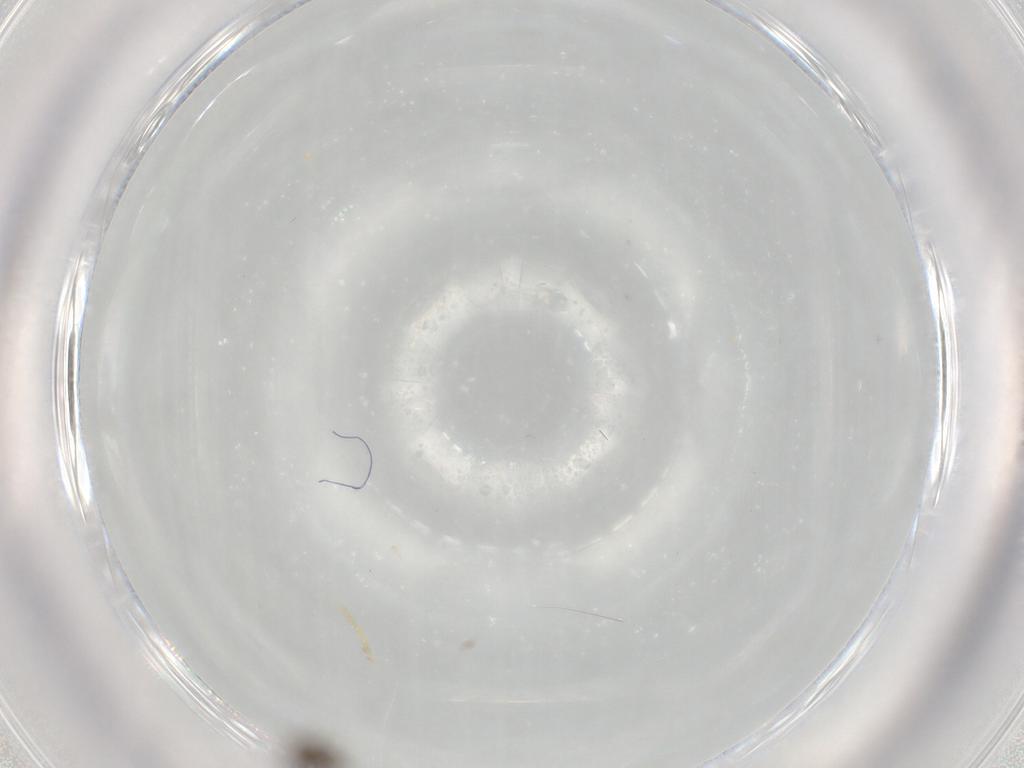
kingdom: Animalia
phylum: Arthropoda
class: Insecta
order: Diptera
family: Cecidomyiidae
